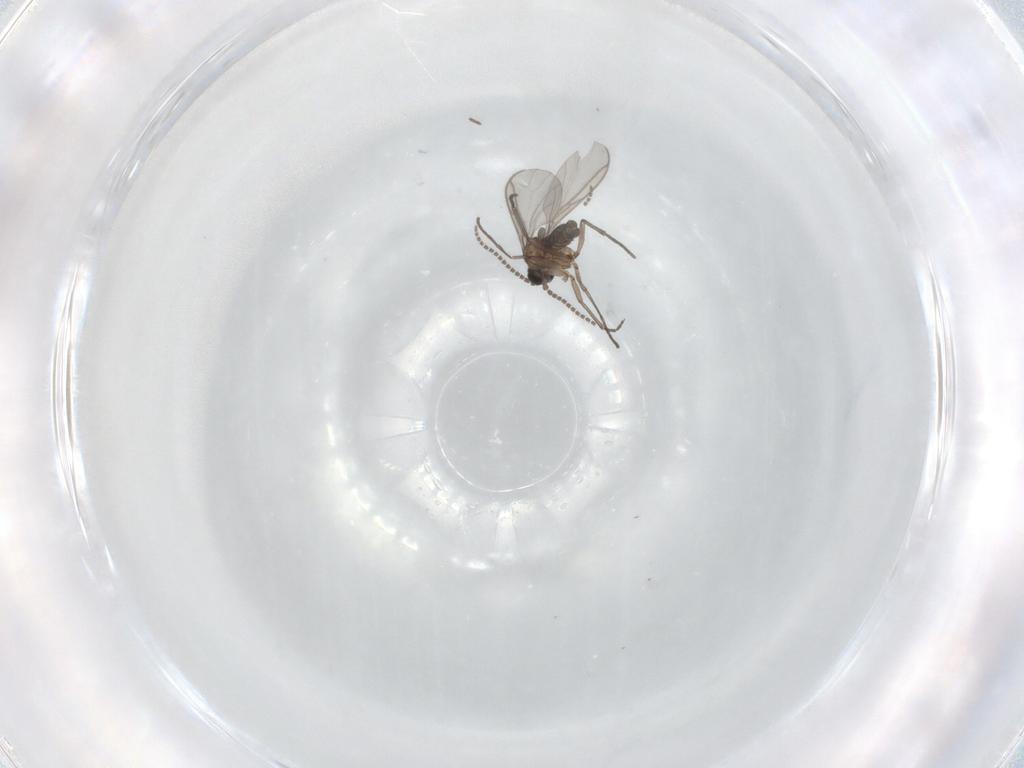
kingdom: Animalia
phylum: Arthropoda
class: Insecta
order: Diptera
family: Sciaridae
